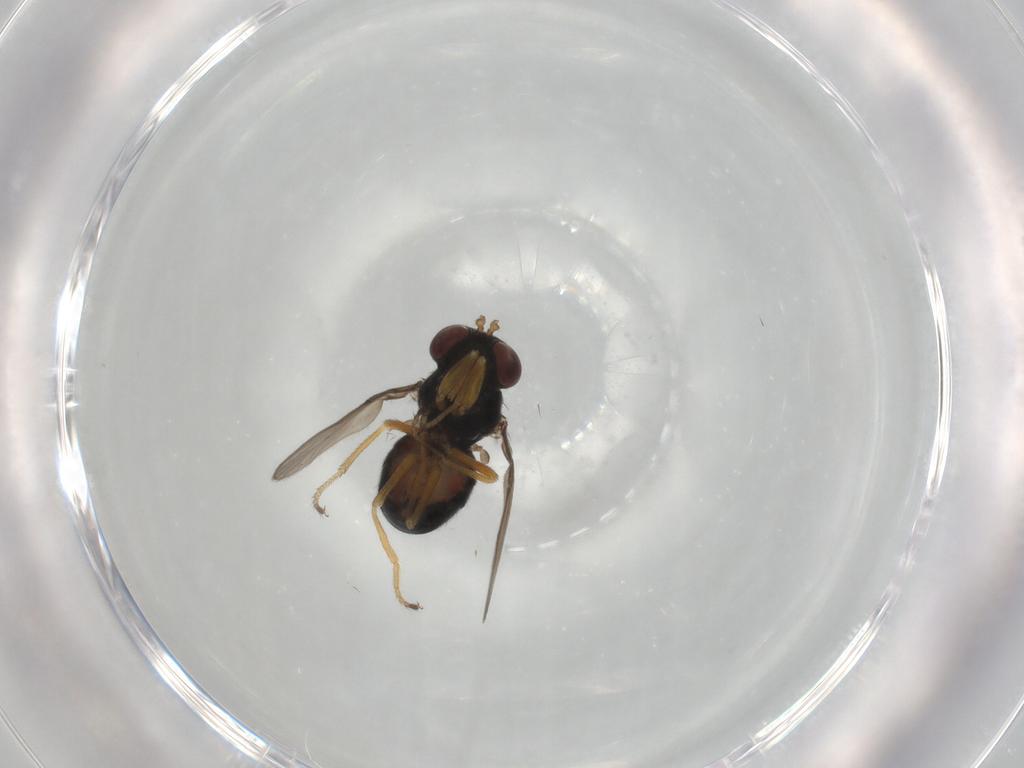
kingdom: Animalia
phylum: Arthropoda
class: Insecta
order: Diptera
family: Ephydridae
